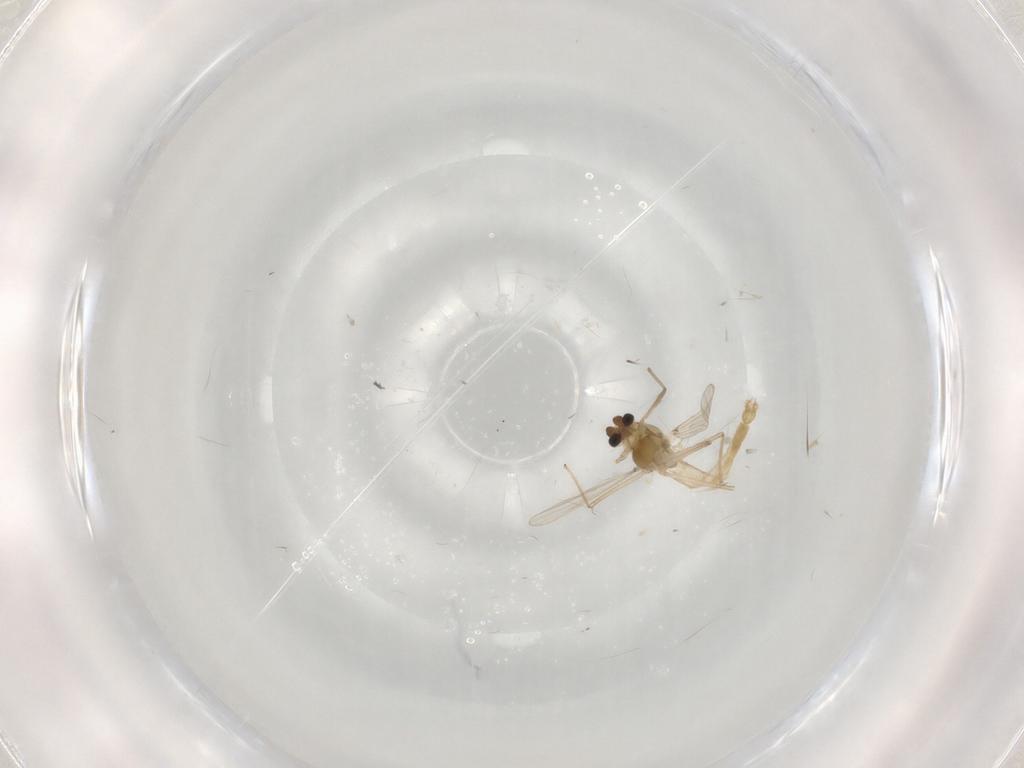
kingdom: Animalia
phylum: Arthropoda
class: Insecta
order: Diptera
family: Chironomidae
